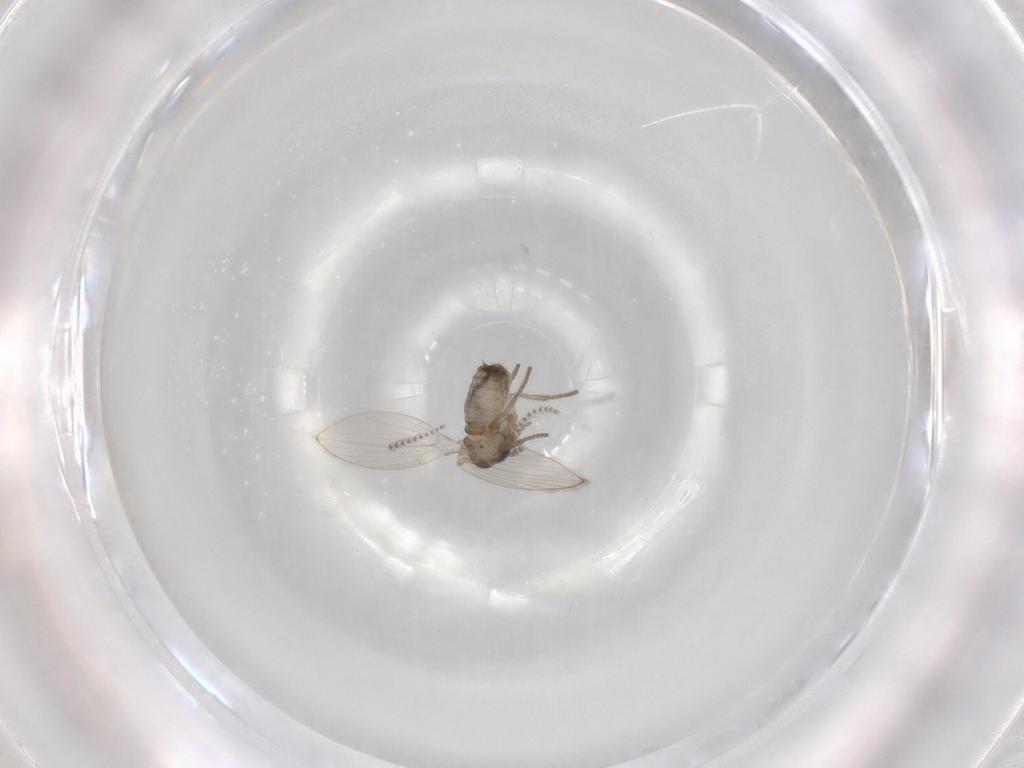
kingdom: Animalia
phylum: Arthropoda
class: Insecta
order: Diptera
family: Psychodidae
